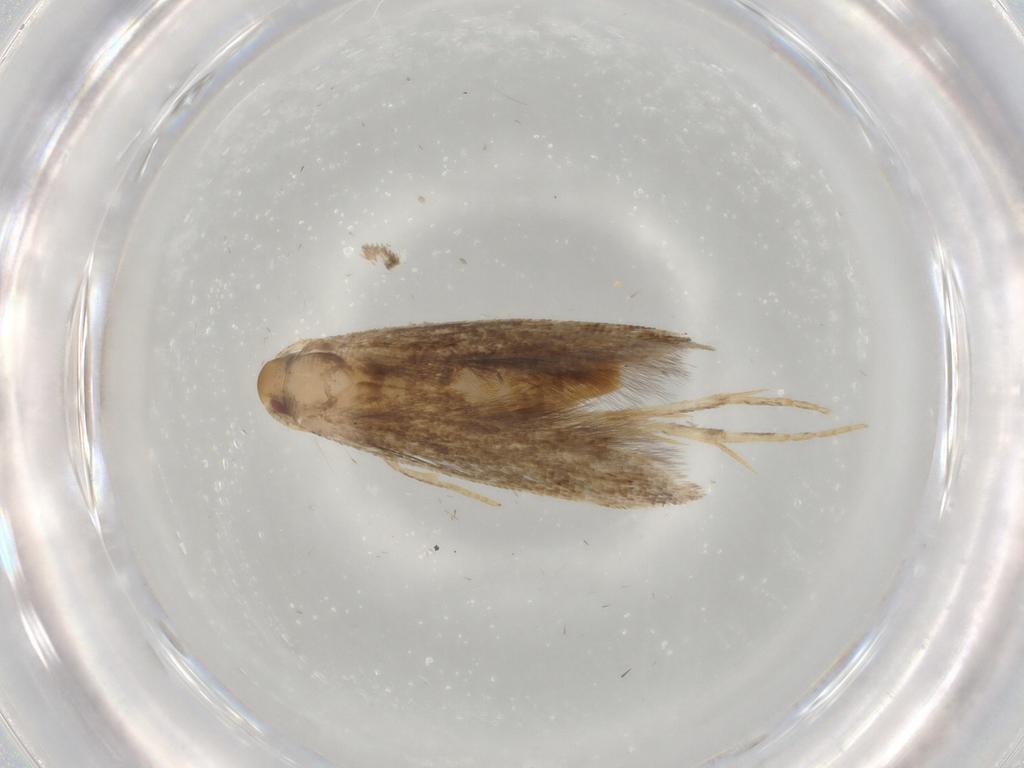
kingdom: Animalia
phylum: Arthropoda
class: Insecta
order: Lepidoptera
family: Momphidae
